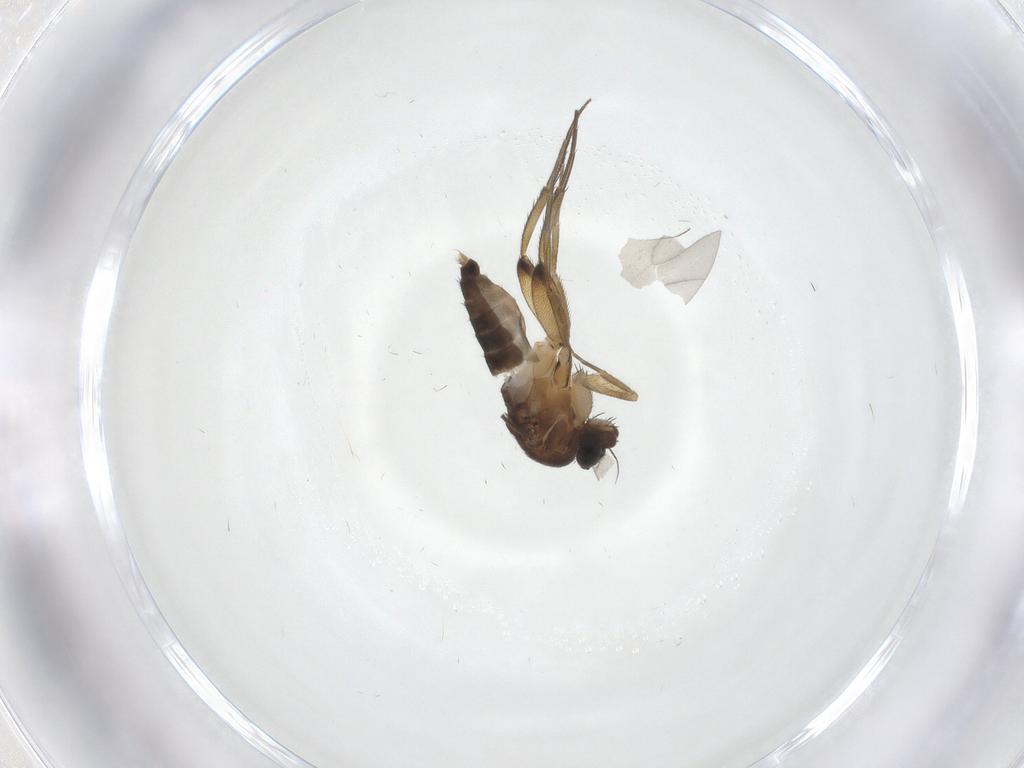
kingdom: Animalia
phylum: Arthropoda
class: Insecta
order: Diptera
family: Phoridae
